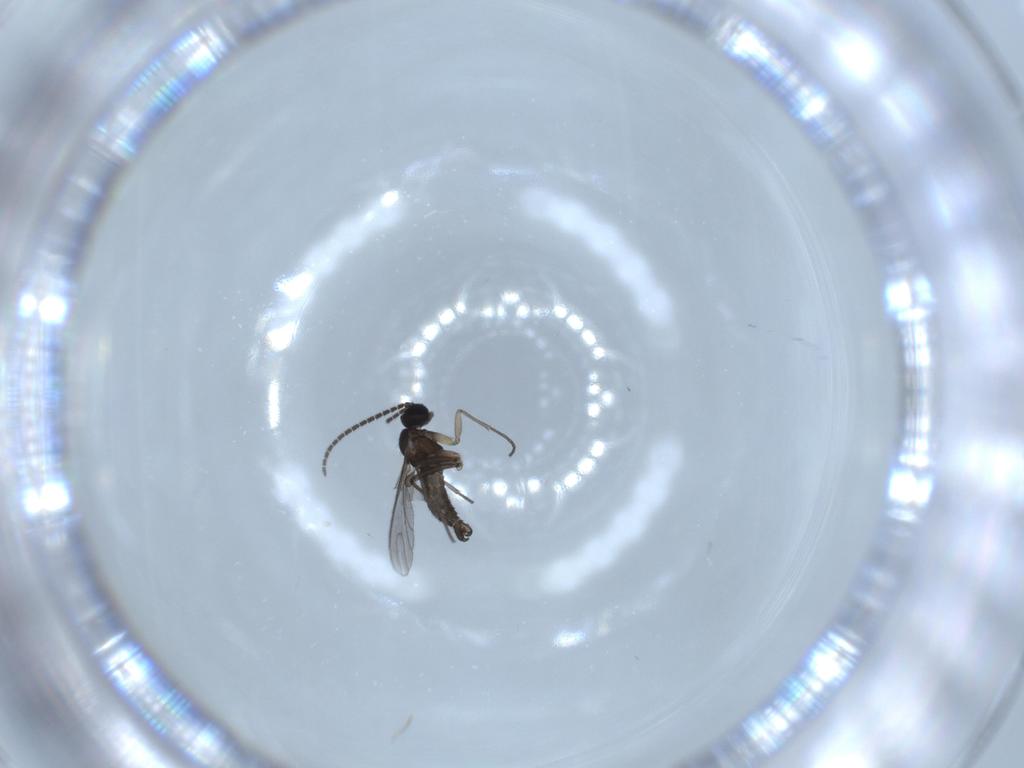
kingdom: Animalia
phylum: Arthropoda
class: Insecta
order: Diptera
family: Sciaridae
